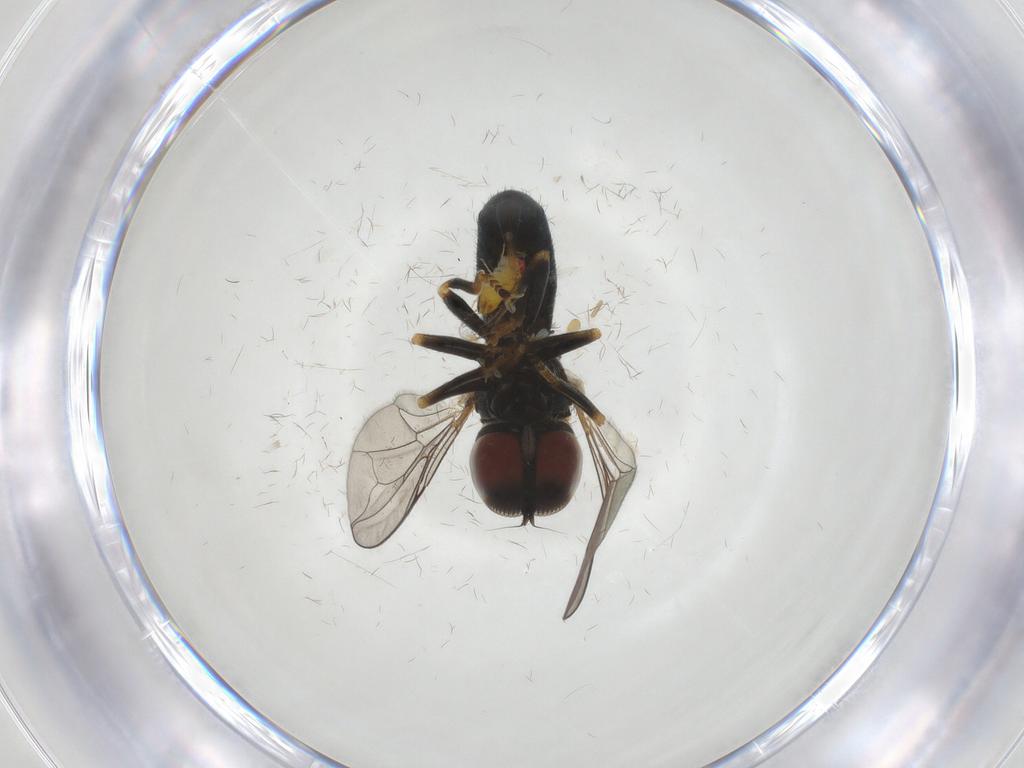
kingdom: Animalia
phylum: Arthropoda
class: Insecta
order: Diptera
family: Pipunculidae
